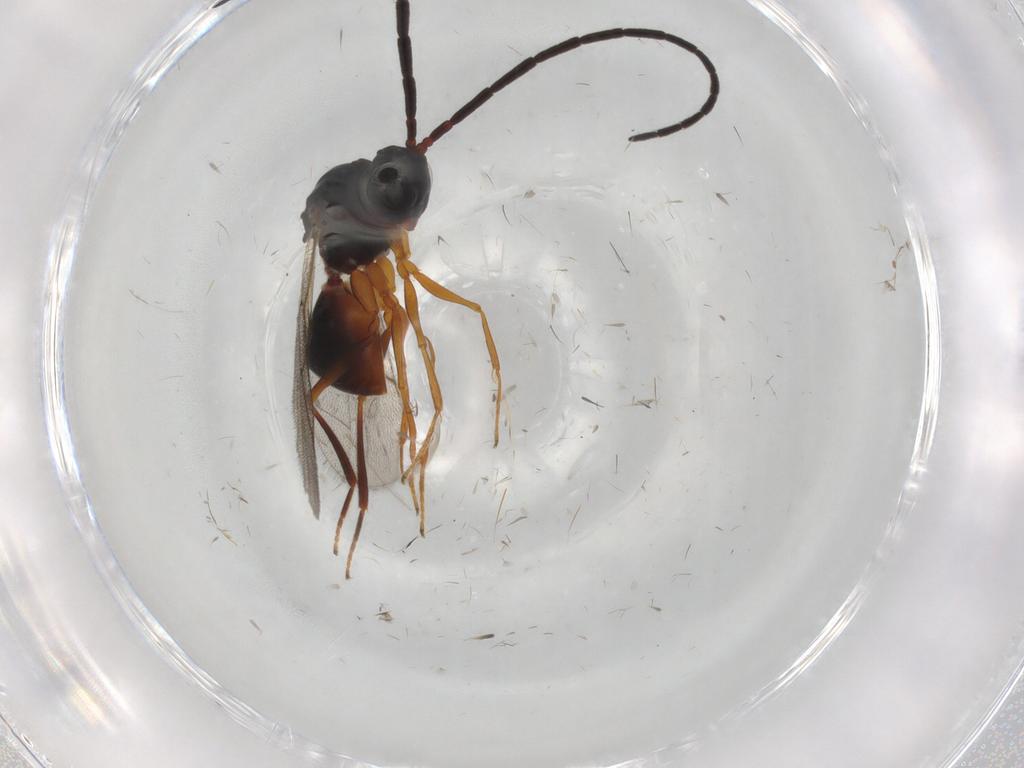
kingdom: Animalia
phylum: Arthropoda
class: Insecta
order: Hymenoptera
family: Figitidae
